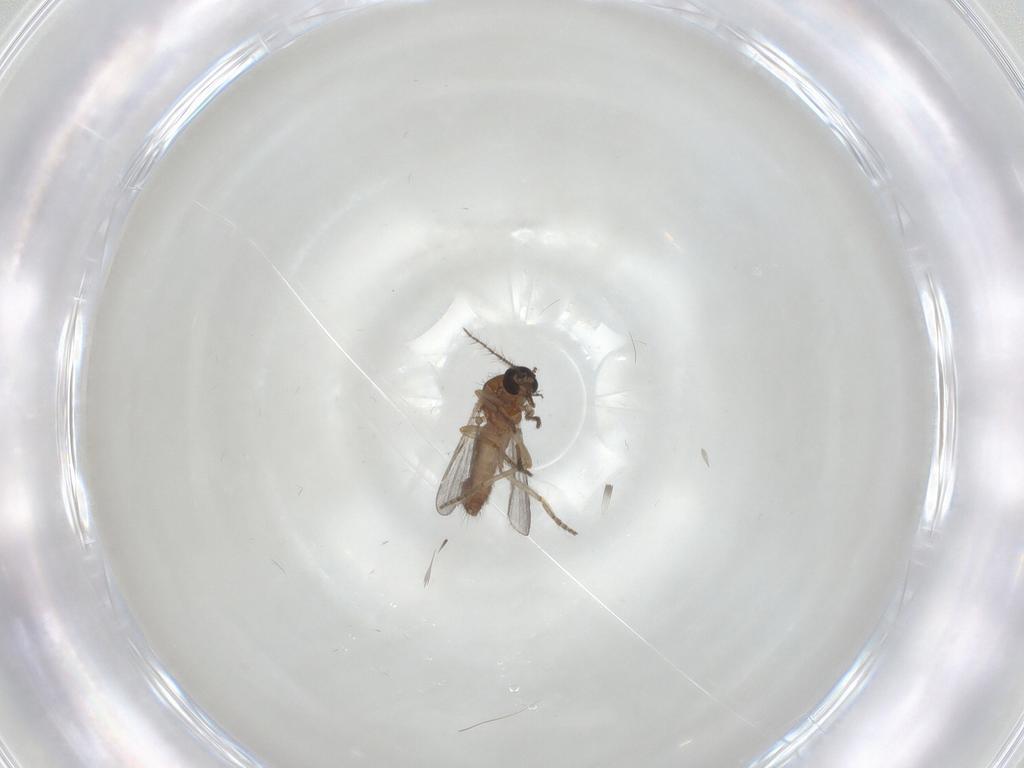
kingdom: Animalia
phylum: Arthropoda
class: Insecta
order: Diptera
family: Ceratopogonidae
